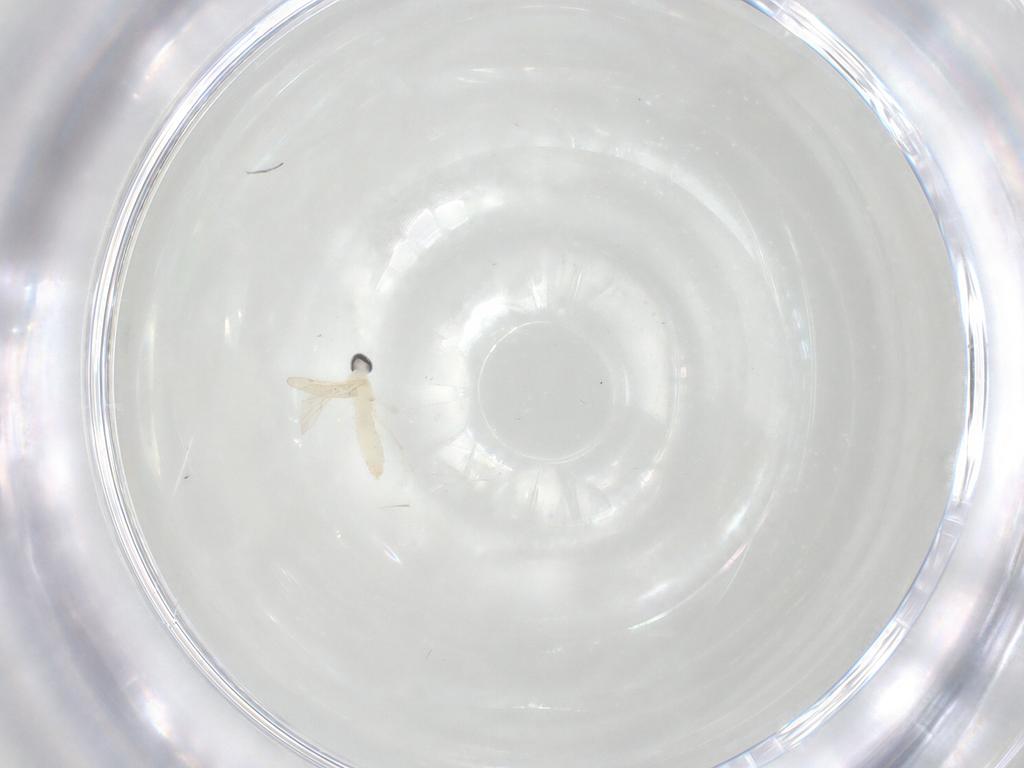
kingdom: Animalia
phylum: Arthropoda
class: Insecta
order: Diptera
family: Cecidomyiidae
